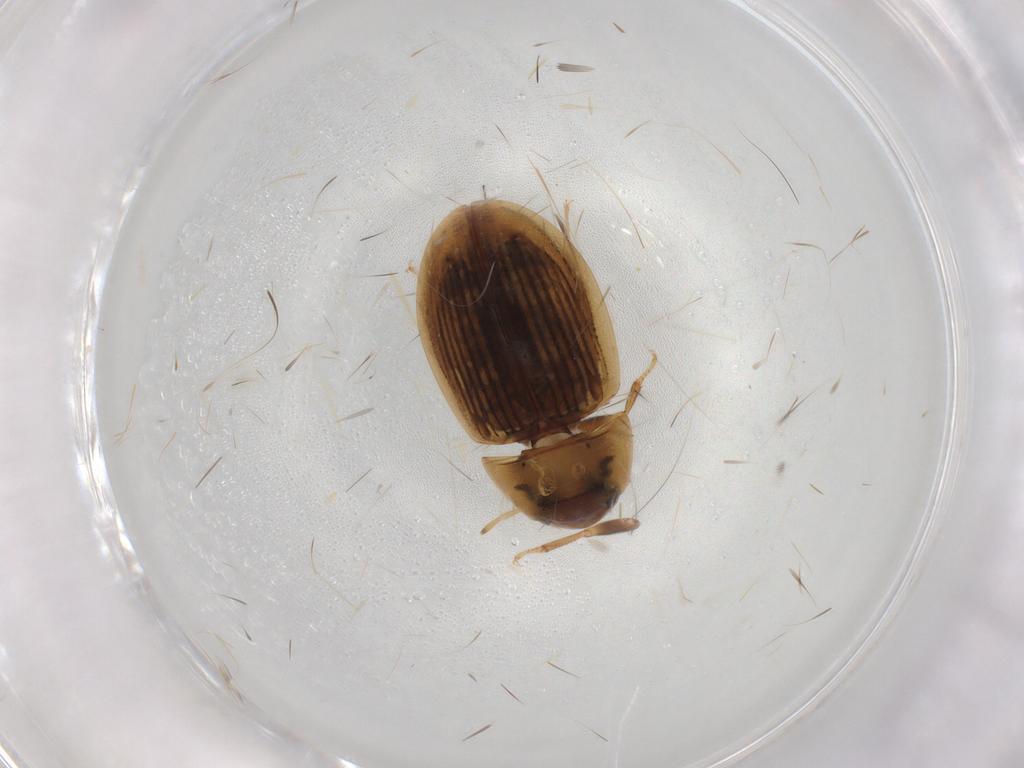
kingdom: Animalia
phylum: Arthropoda
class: Insecta
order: Coleoptera
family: Hydrophilidae
